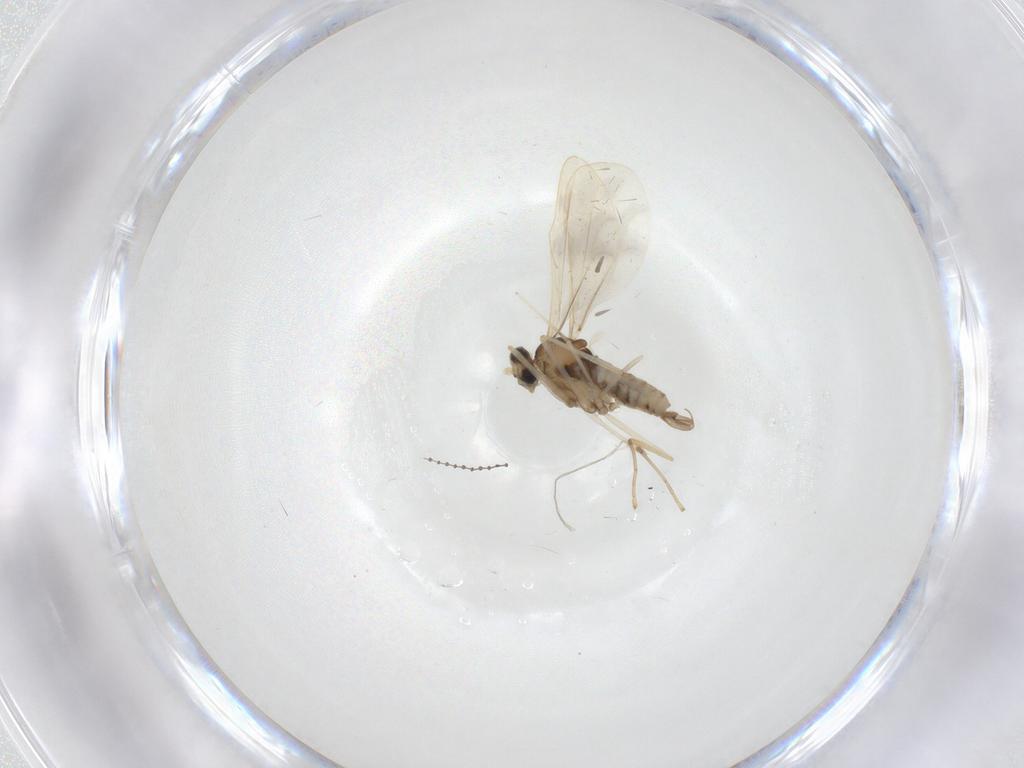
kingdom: Animalia
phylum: Arthropoda
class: Insecta
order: Diptera
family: Cecidomyiidae
